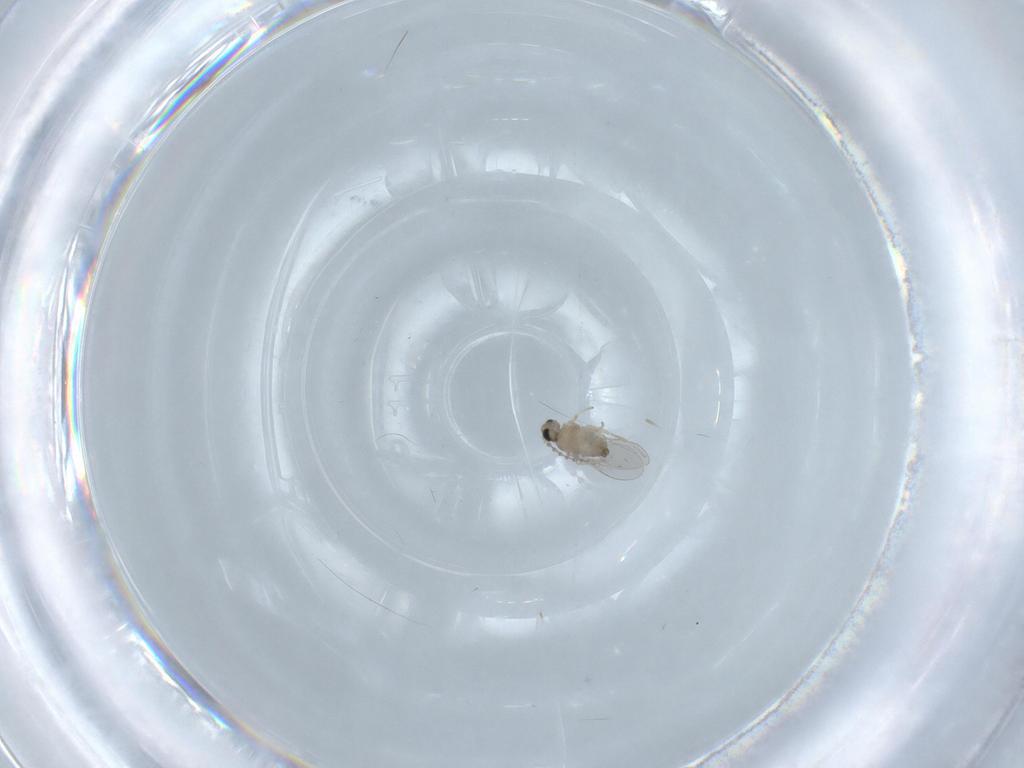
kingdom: Animalia
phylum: Arthropoda
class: Insecta
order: Diptera
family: Cecidomyiidae
